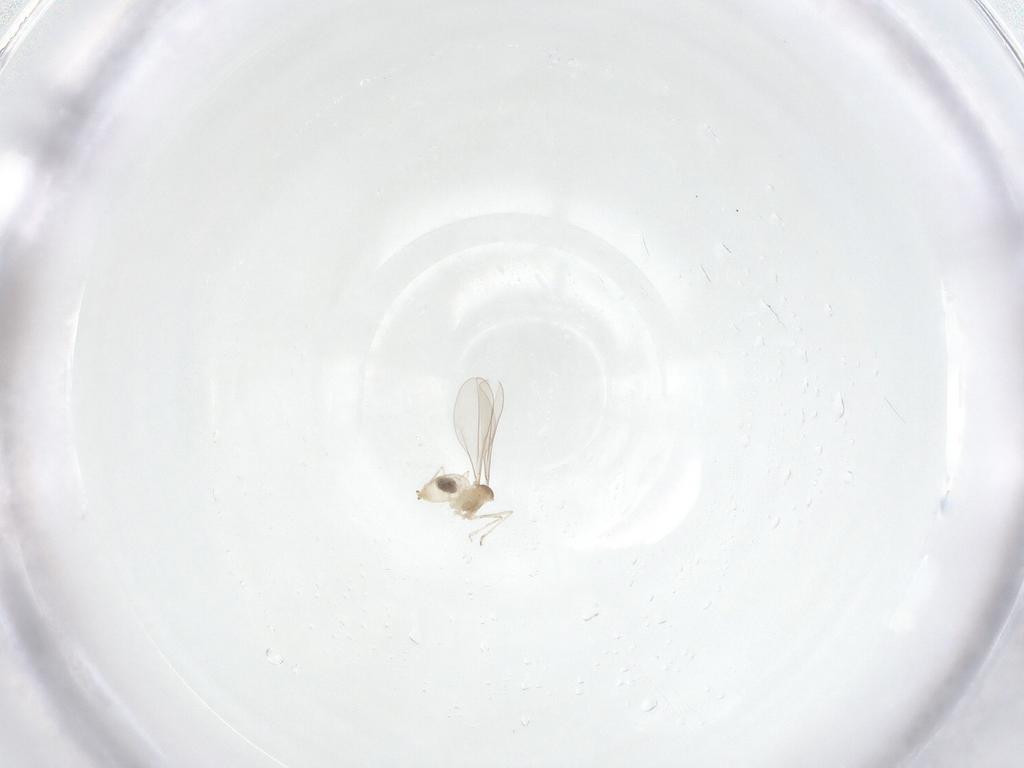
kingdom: Animalia
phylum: Arthropoda
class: Insecta
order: Diptera
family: Cecidomyiidae
